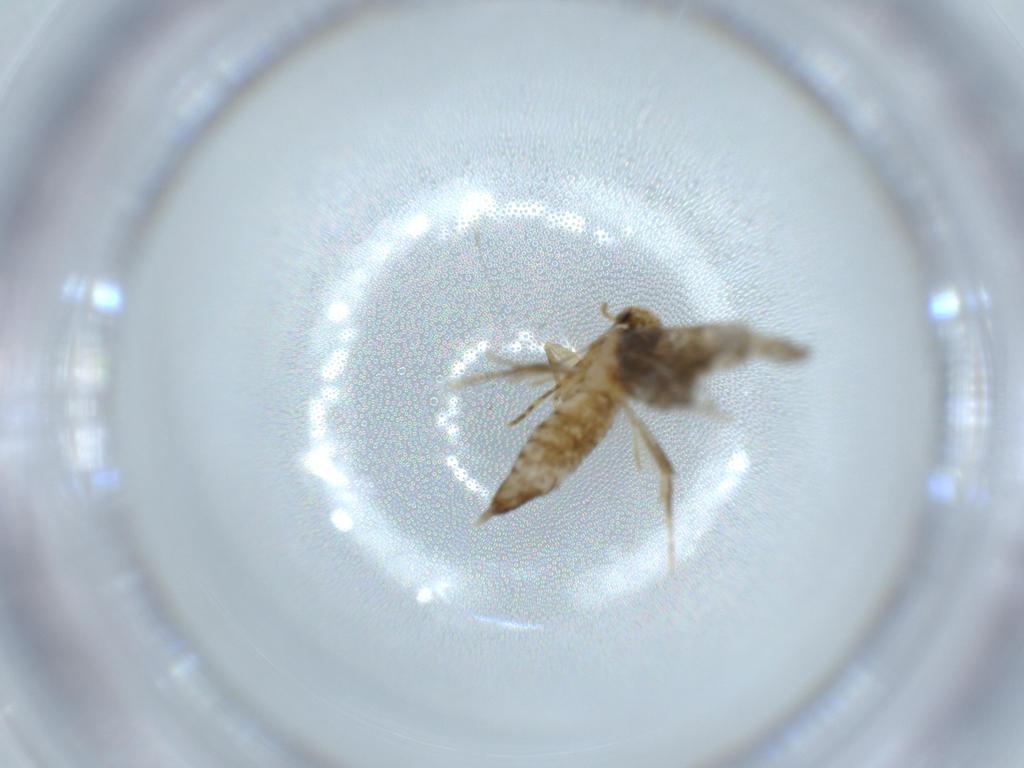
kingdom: Animalia
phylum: Arthropoda
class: Insecta
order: Lepidoptera
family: Tineidae
